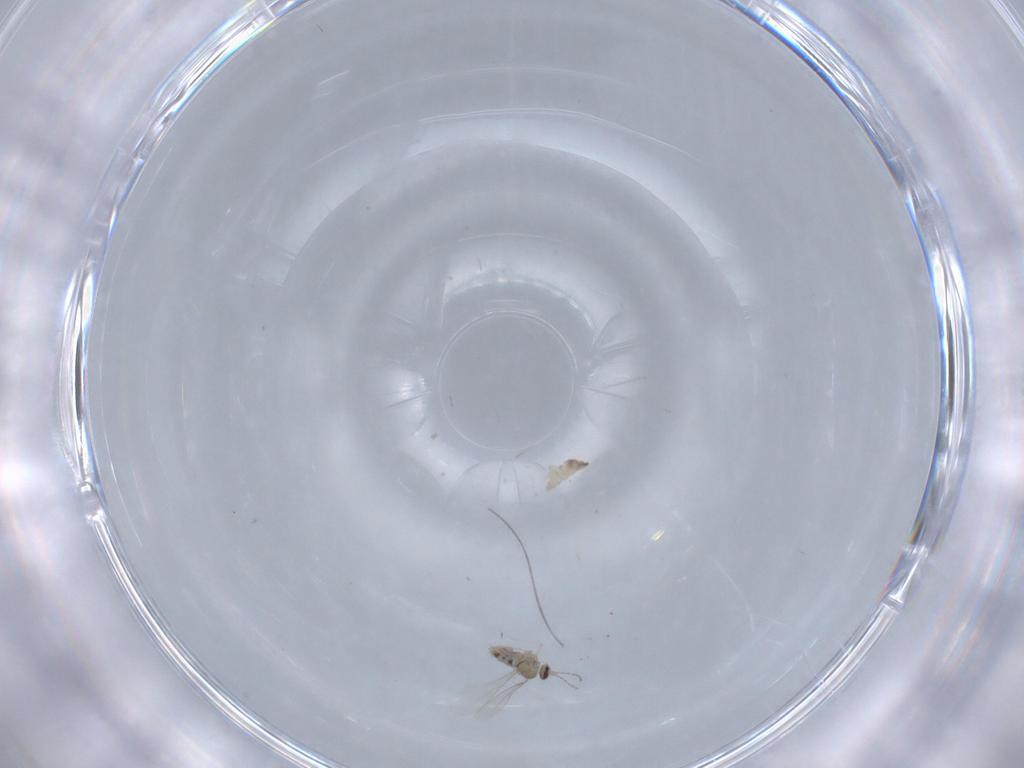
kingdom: Animalia
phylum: Arthropoda
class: Insecta
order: Diptera
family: Cecidomyiidae
